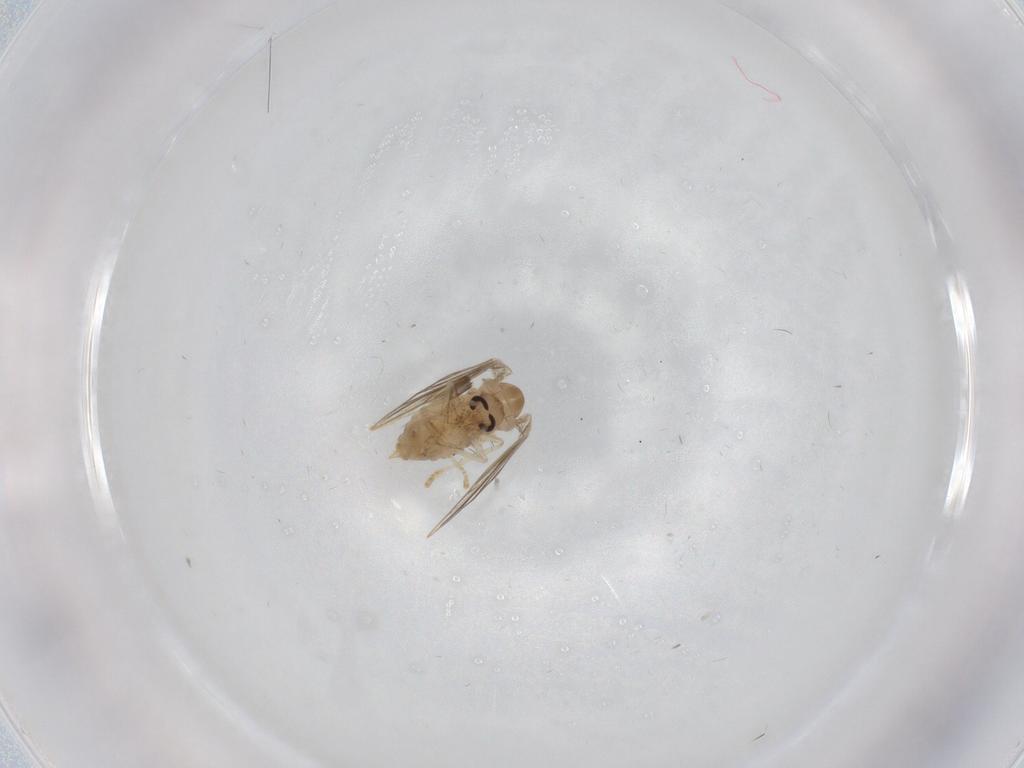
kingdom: Animalia
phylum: Arthropoda
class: Insecta
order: Diptera
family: Psychodidae
